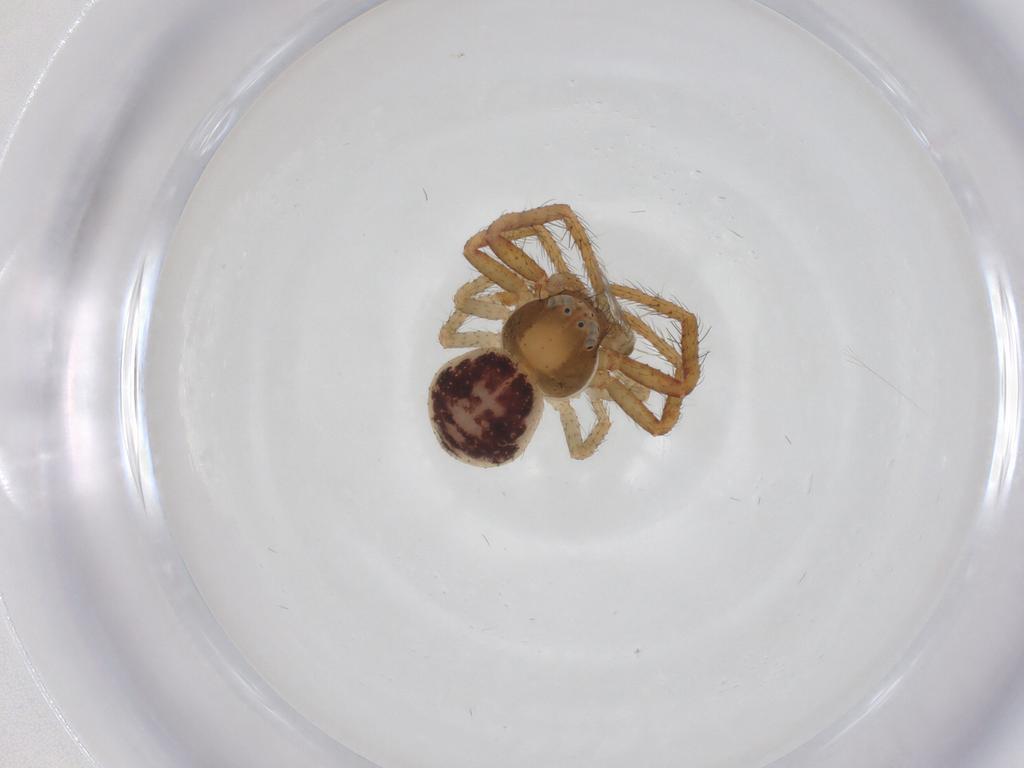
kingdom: Animalia
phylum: Arthropoda
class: Arachnida
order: Araneae
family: Thomisidae
